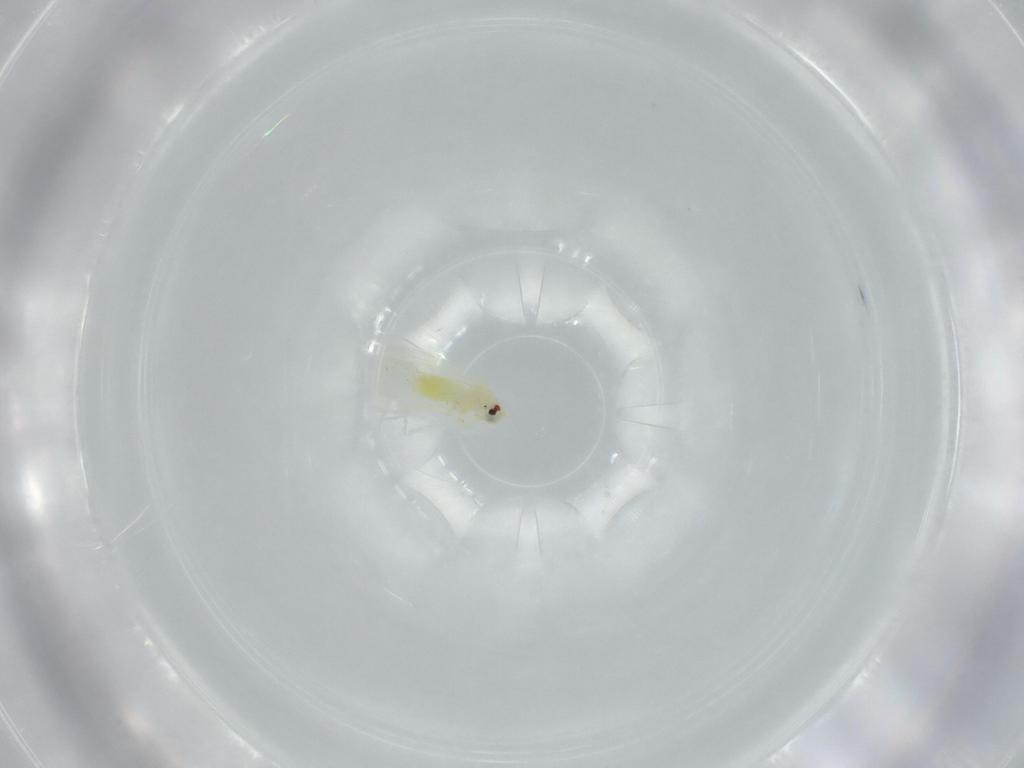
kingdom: Animalia
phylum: Arthropoda
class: Insecta
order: Hemiptera
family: Aleyrodidae
